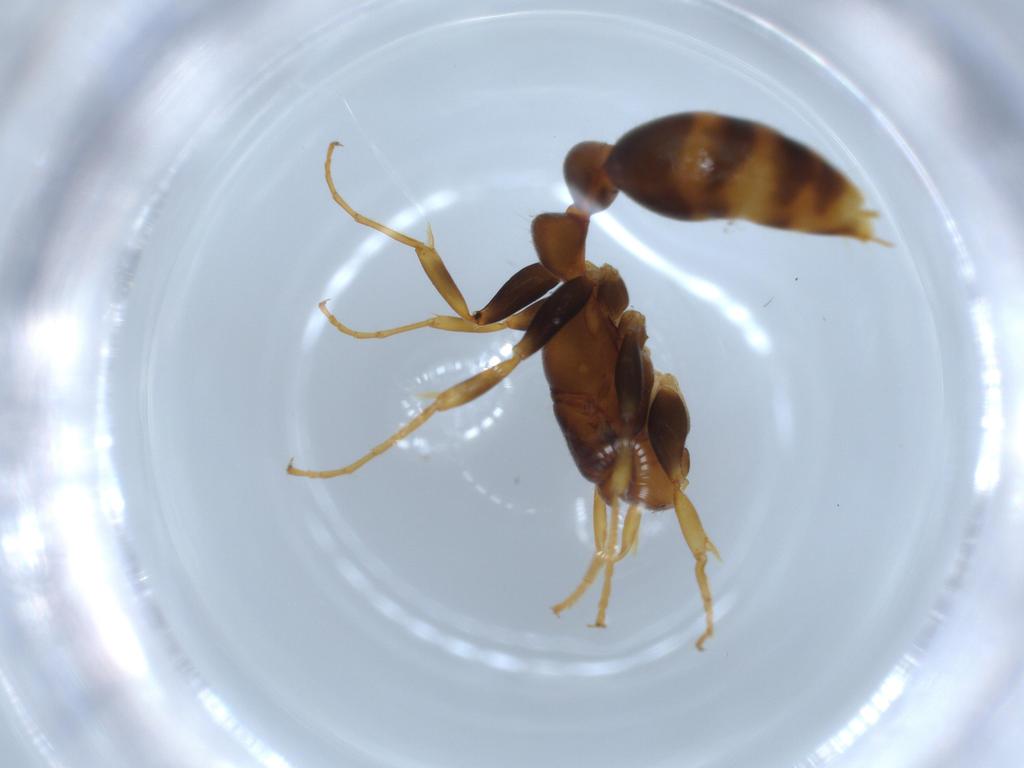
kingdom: Animalia
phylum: Arthropoda
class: Insecta
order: Hymenoptera
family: Formicidae
